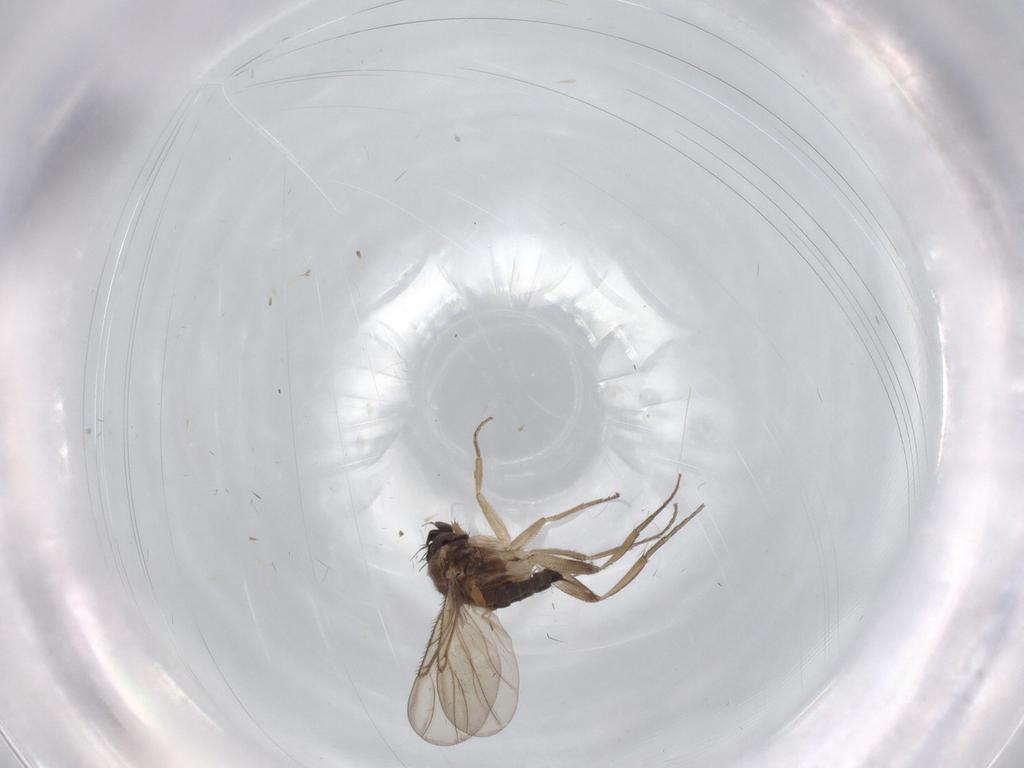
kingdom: Animalia
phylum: Arthropoda
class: Insecta
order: Diptera
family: Phoridae
